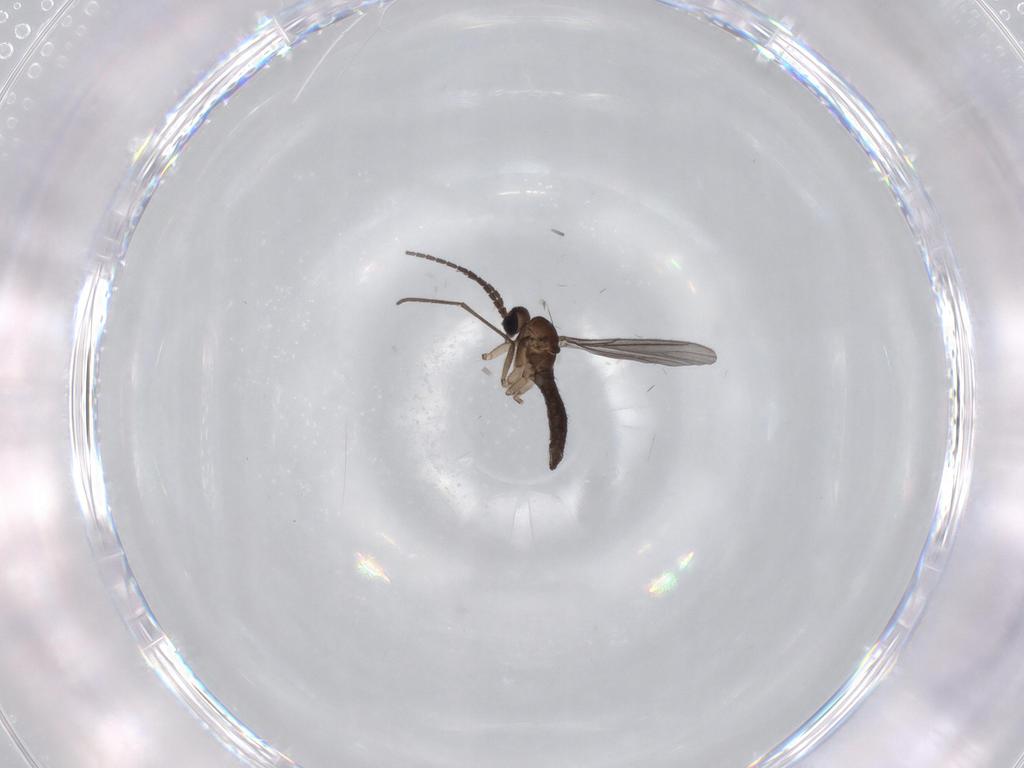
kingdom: Animalia
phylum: Arthropoda
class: Insecta
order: Diptera
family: Sciaridae
